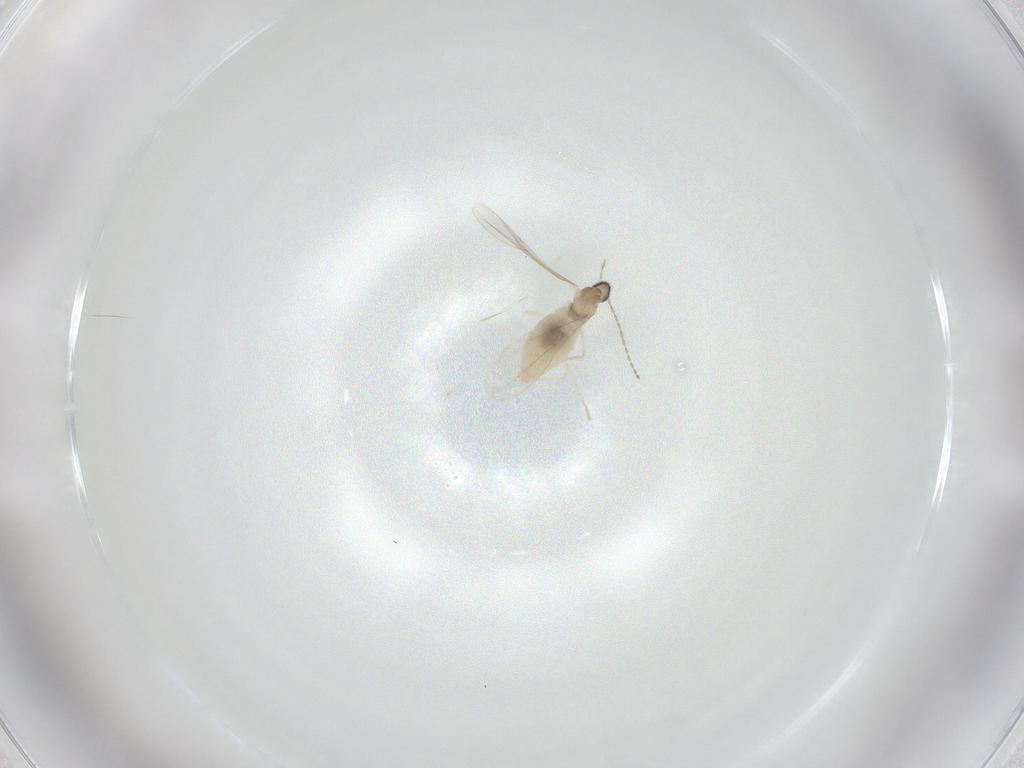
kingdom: Animalia
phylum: Arthropoda
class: Insecta
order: Diptera
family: Cecidomyiidae
